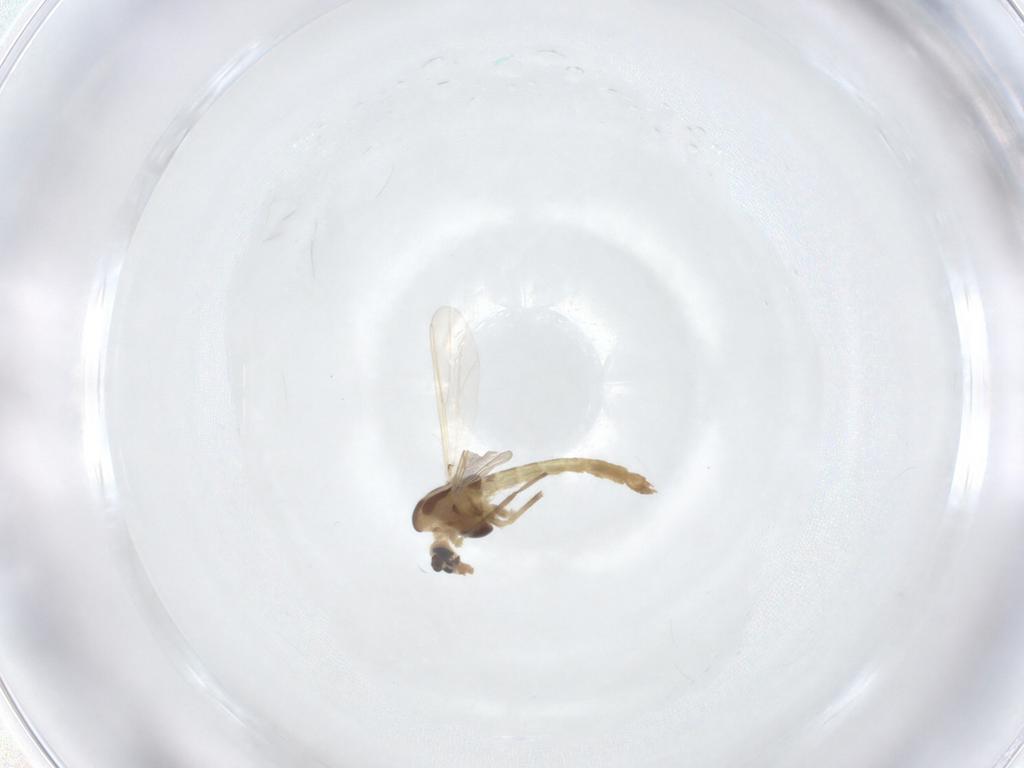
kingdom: Animalia
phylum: Arthropoda
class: Insecta
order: Diptera
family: Chironomidae
